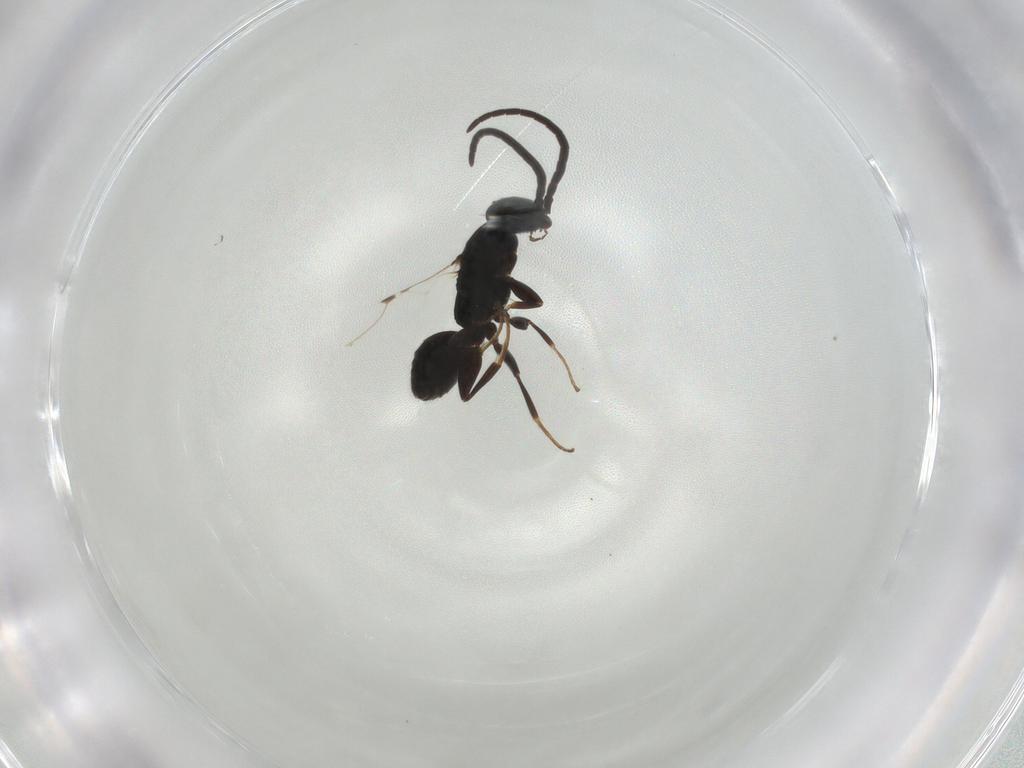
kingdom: Animalia
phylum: Arthropoda
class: Insecta
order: Hymenoptera
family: Bethylidae
